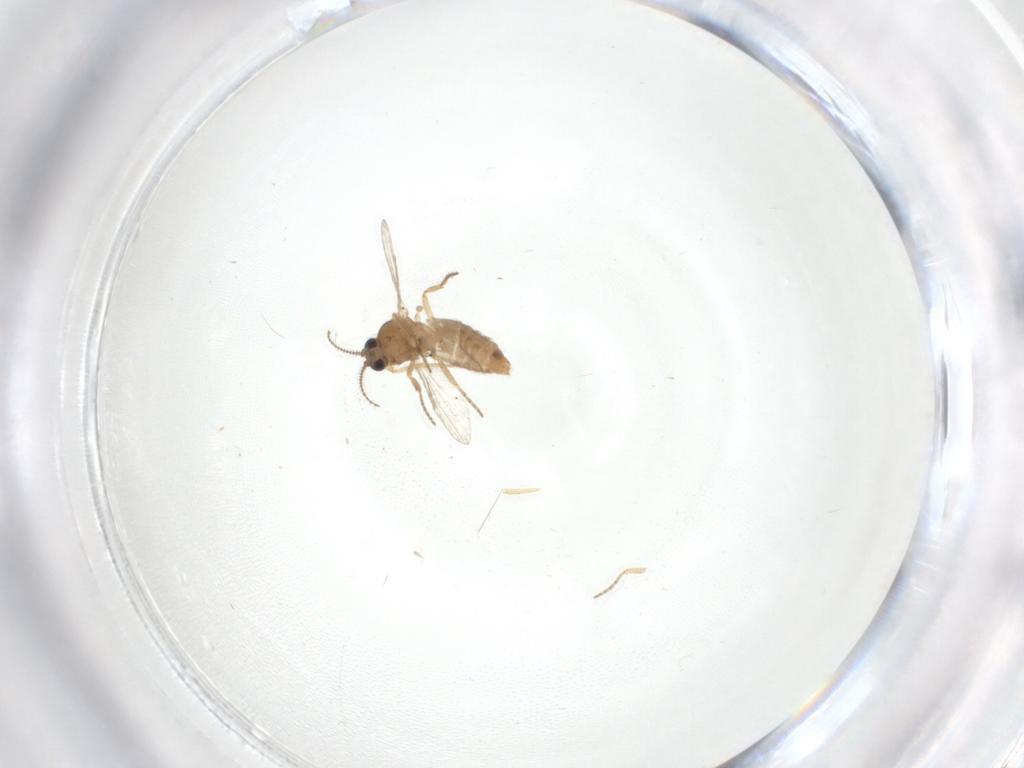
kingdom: Animalia
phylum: Arthropoda
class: Insecta
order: Diptera
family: Ceratopogonidae
